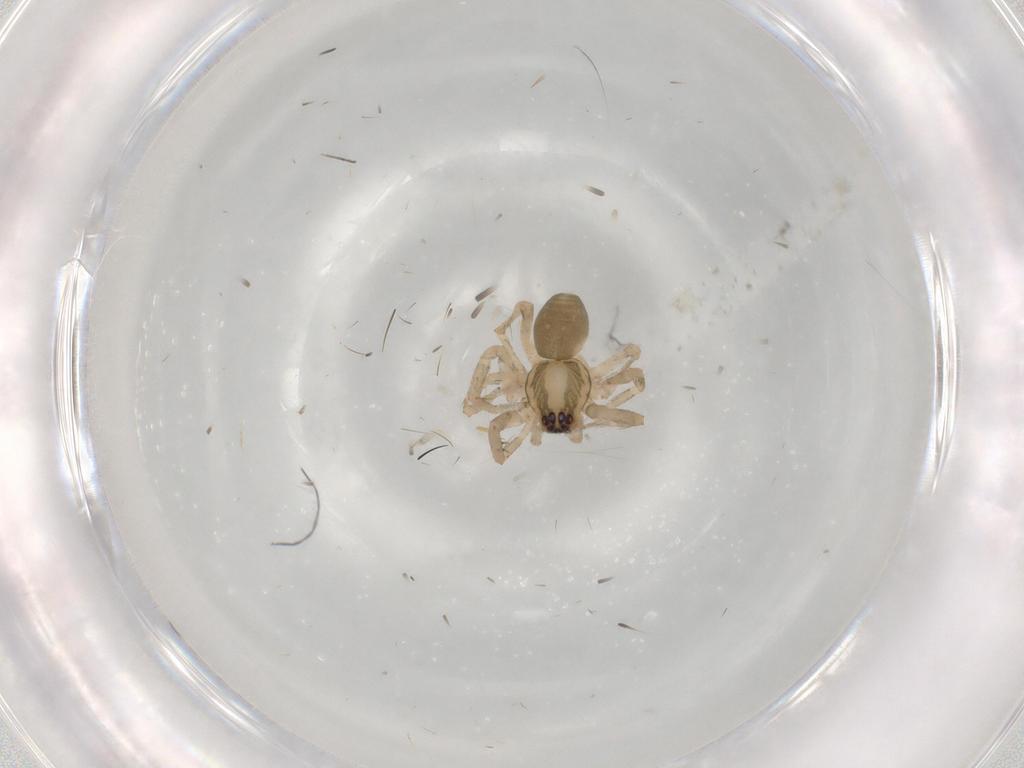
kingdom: Animalia
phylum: Arthropoda
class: Arachnida
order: Araneae
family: Anyphaenidae
